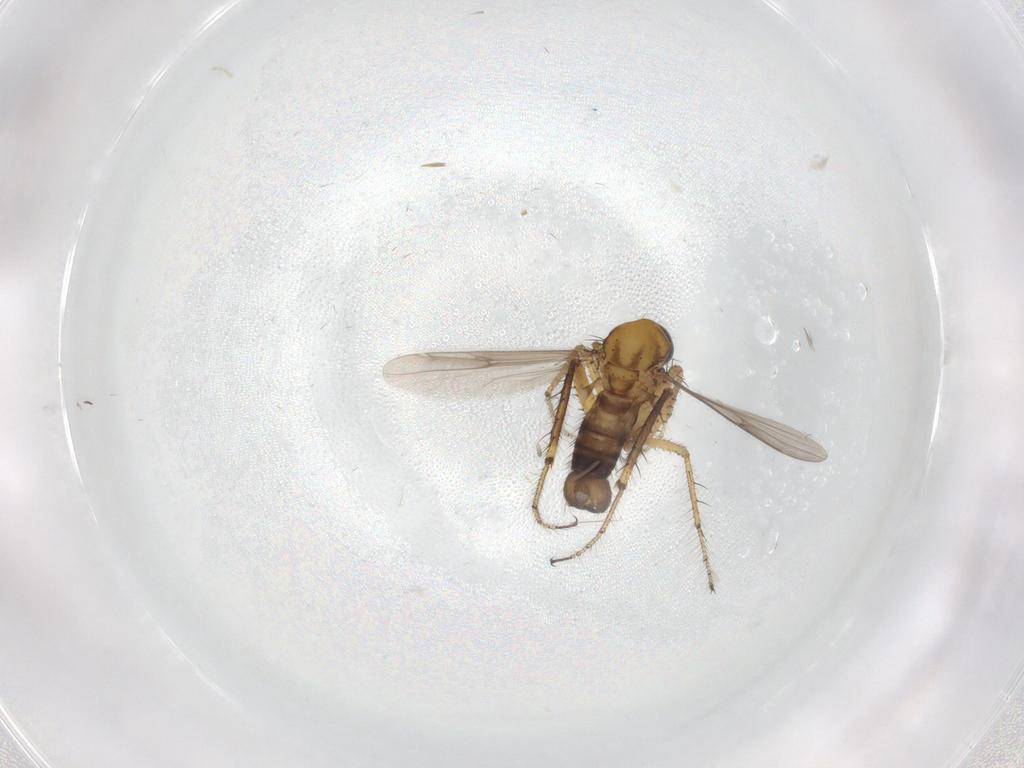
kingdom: Animalia
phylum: Arthropoda
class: Insecta
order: Diptera
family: Ceratopogonidae
